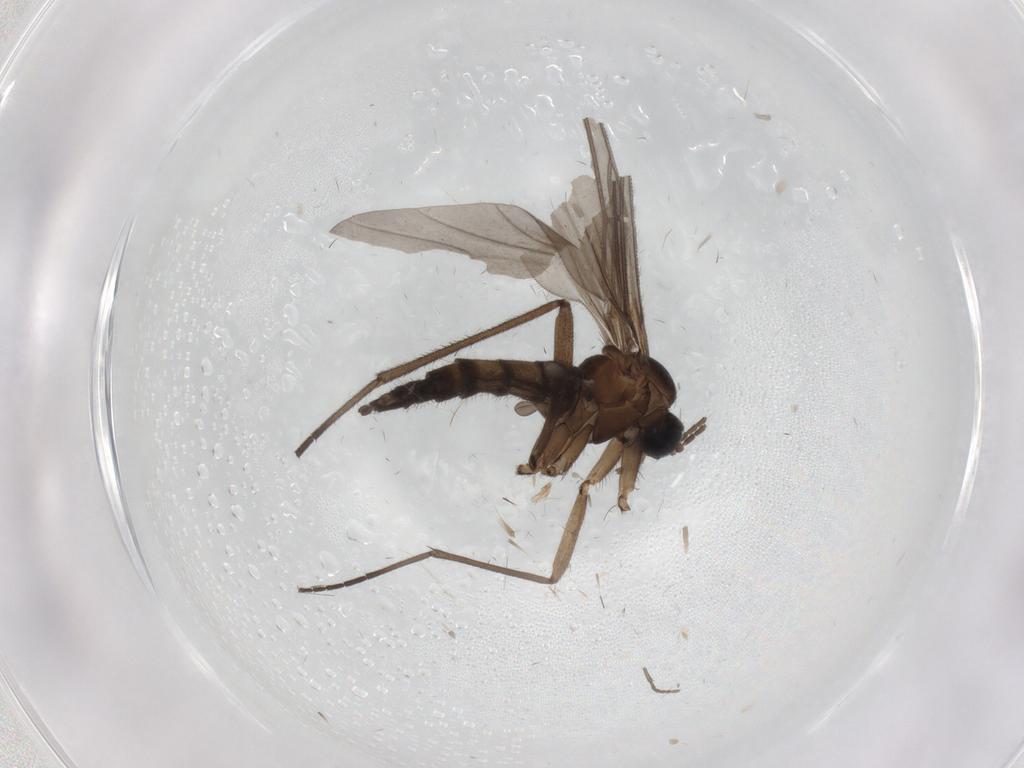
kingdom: Animalia
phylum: Arthropoda
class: Insecta
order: Diptera
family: Sciaridae
